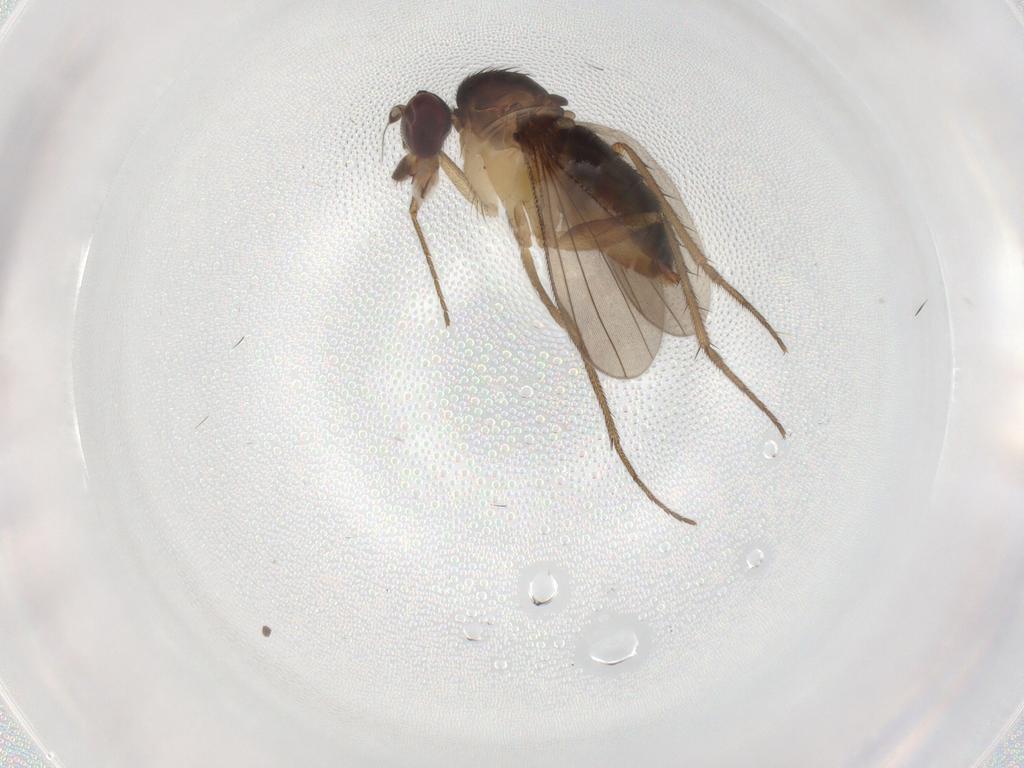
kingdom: Animalia
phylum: Arthropoda
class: Insecta
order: Diptera
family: Dolichopodidae
